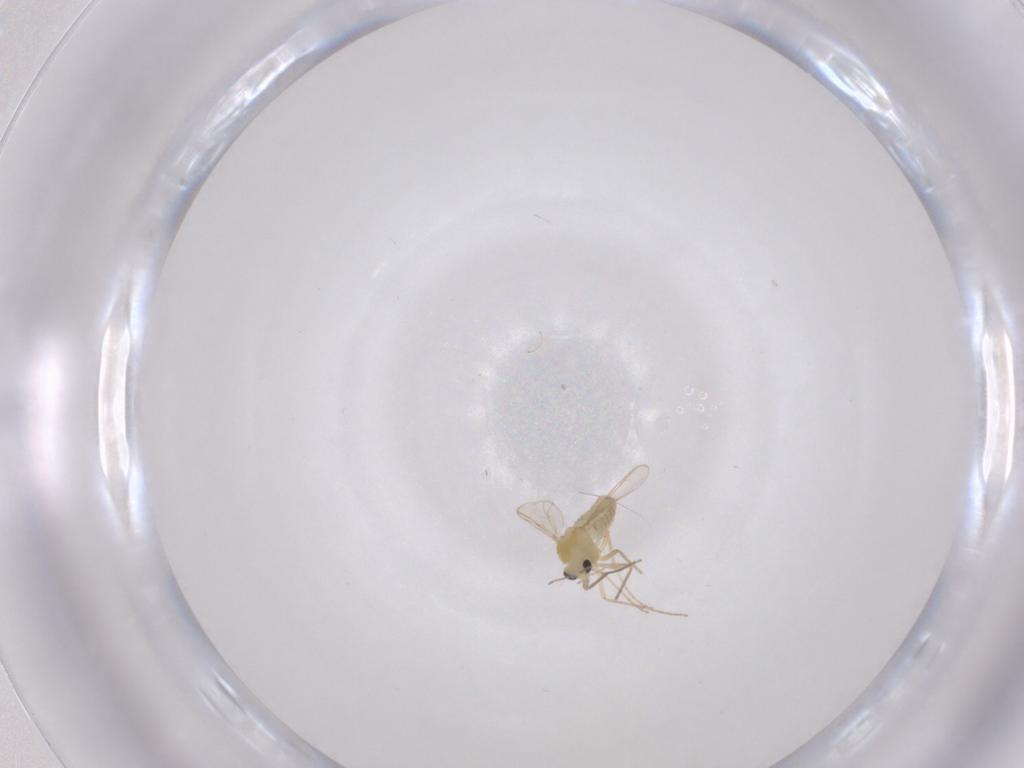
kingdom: Animalia
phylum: Arthropoda
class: Insecta
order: Diptera
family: Chironomidae
